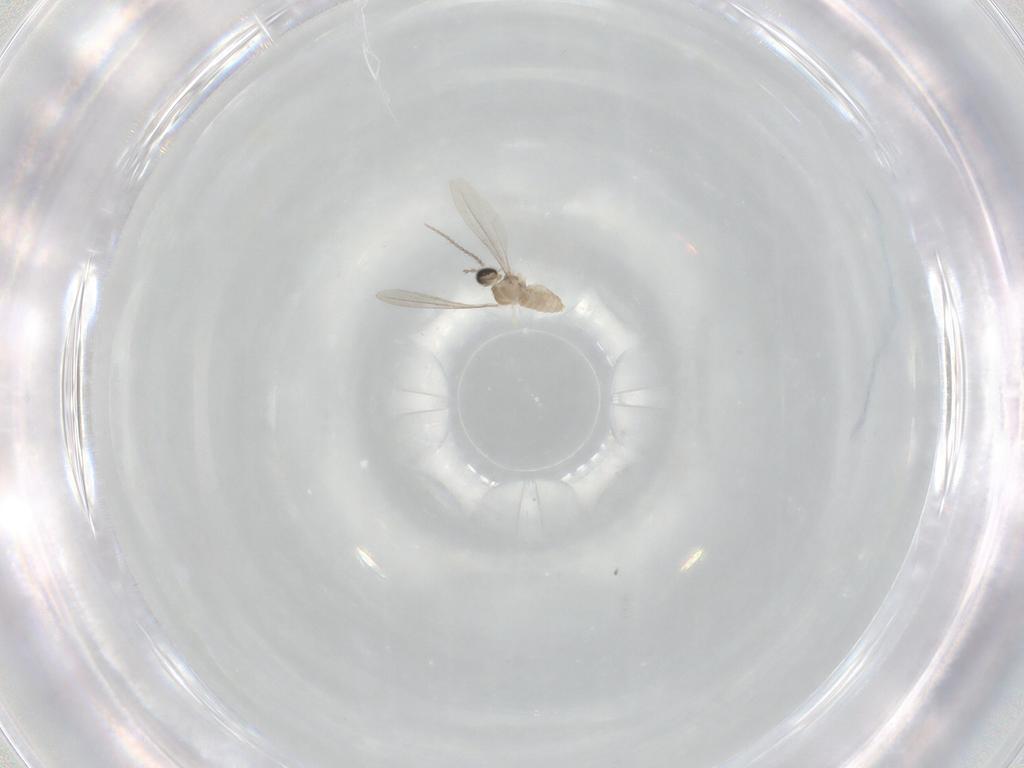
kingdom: Animalia
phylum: Arthropoda
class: Insecta
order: Diptera
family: Cecidomyiidae
